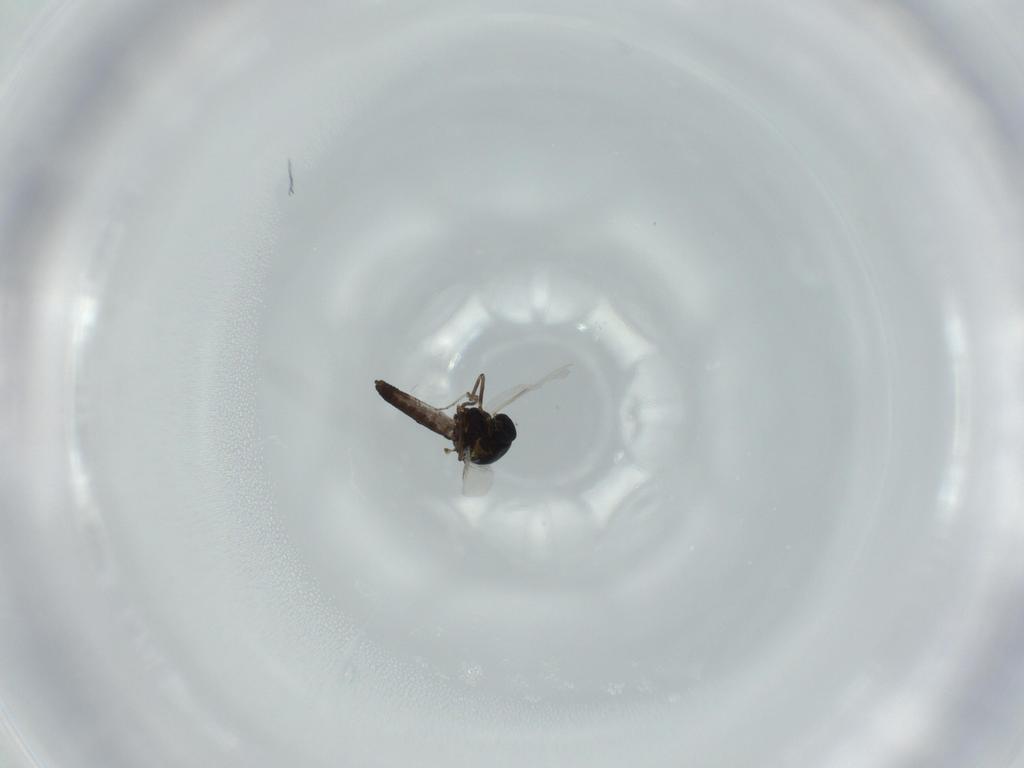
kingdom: Animalia
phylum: Arthropoda
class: Insecta
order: Diptera
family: Ceratopogonidae
